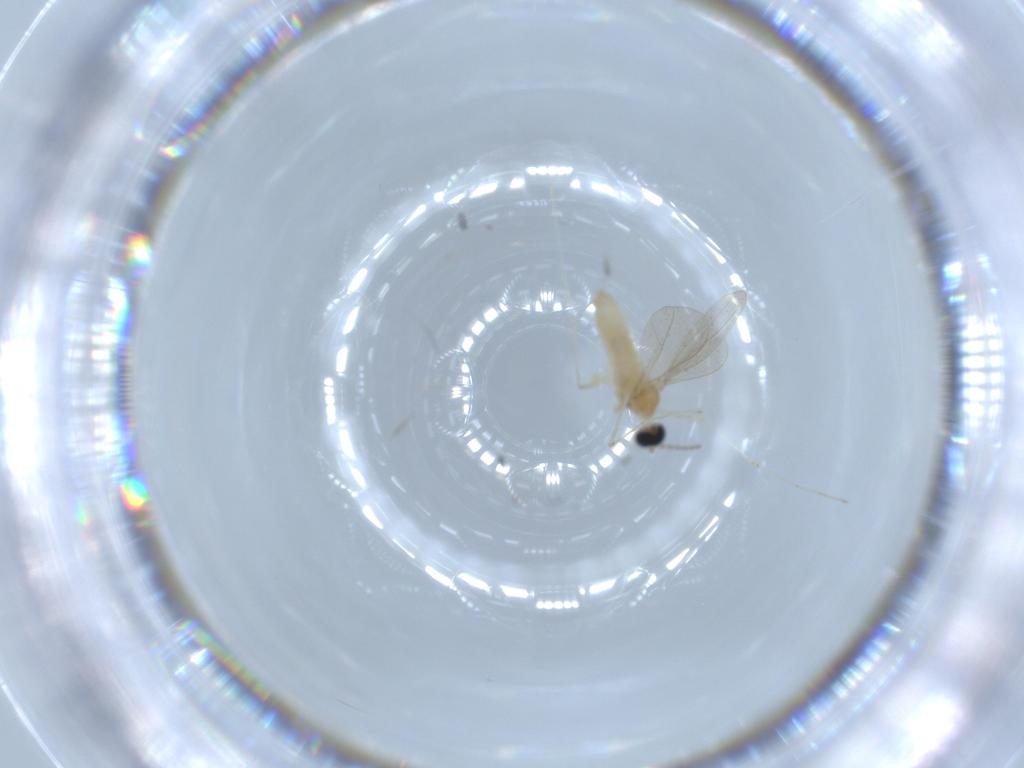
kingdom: Animalia
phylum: Arthropoda
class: Insecta
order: Diptera
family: Cecidomyiidae
